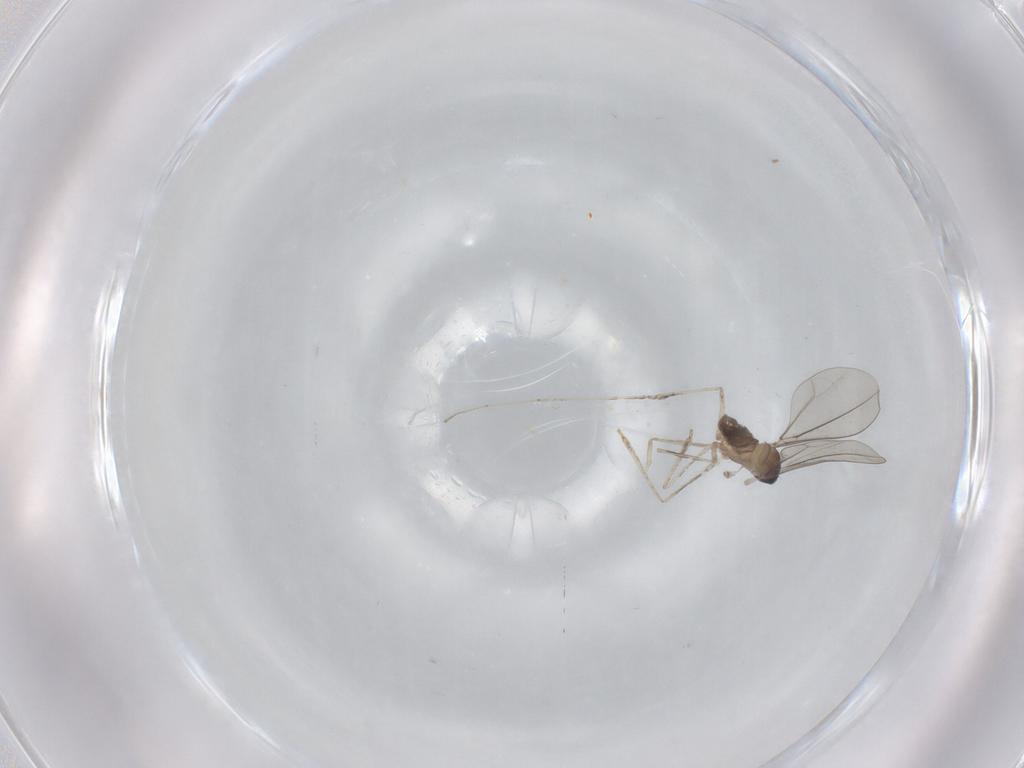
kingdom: Animalia
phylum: Arthropoda
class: Insecta
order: Diptera
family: Cecidomyiidae
